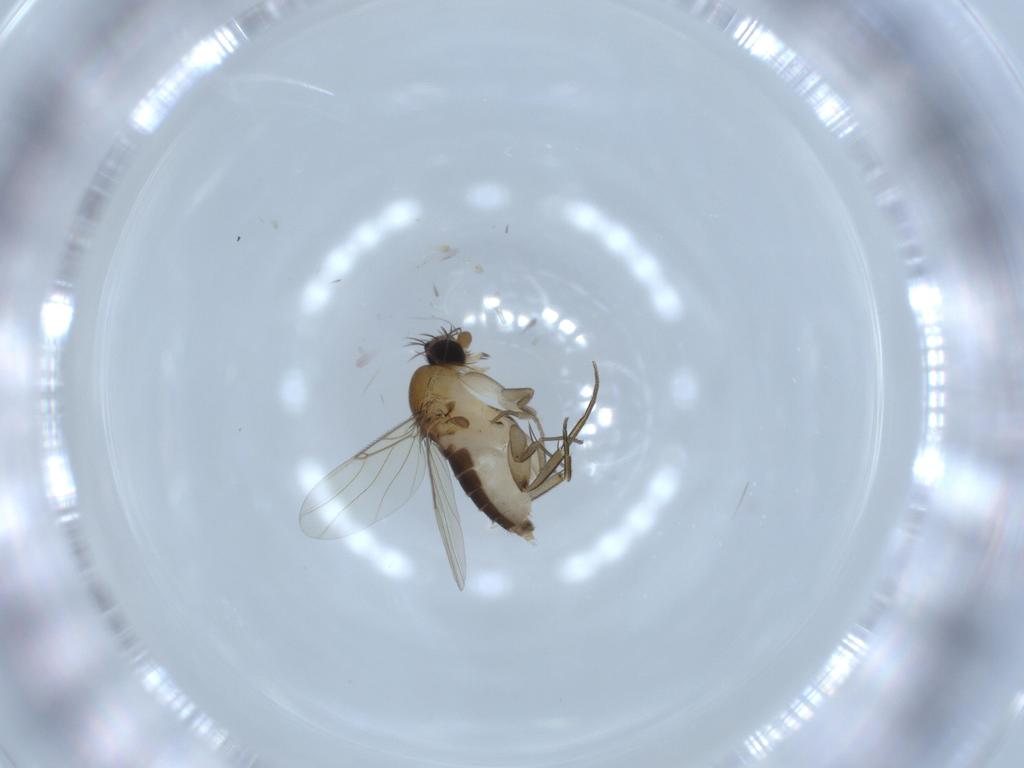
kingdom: Animalia
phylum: Arthropoda
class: Insecta
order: Diptera
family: Phoridae
